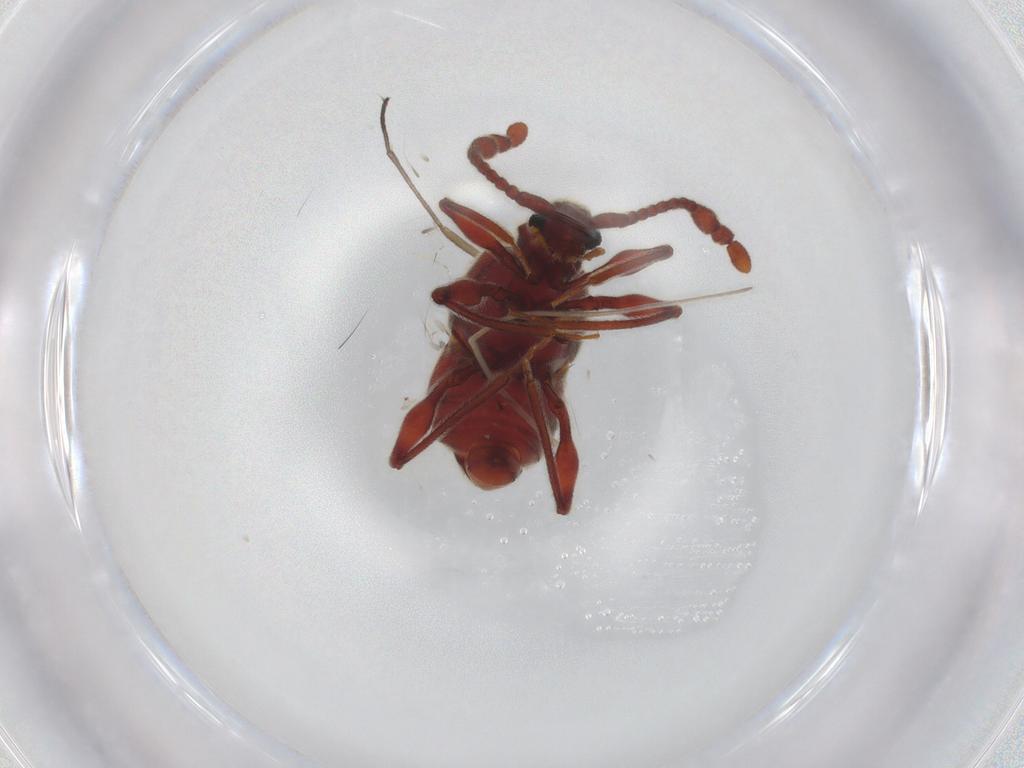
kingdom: Animalia
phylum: Arthropoda
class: Insecta
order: Coleoptera
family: Staphylinidae
